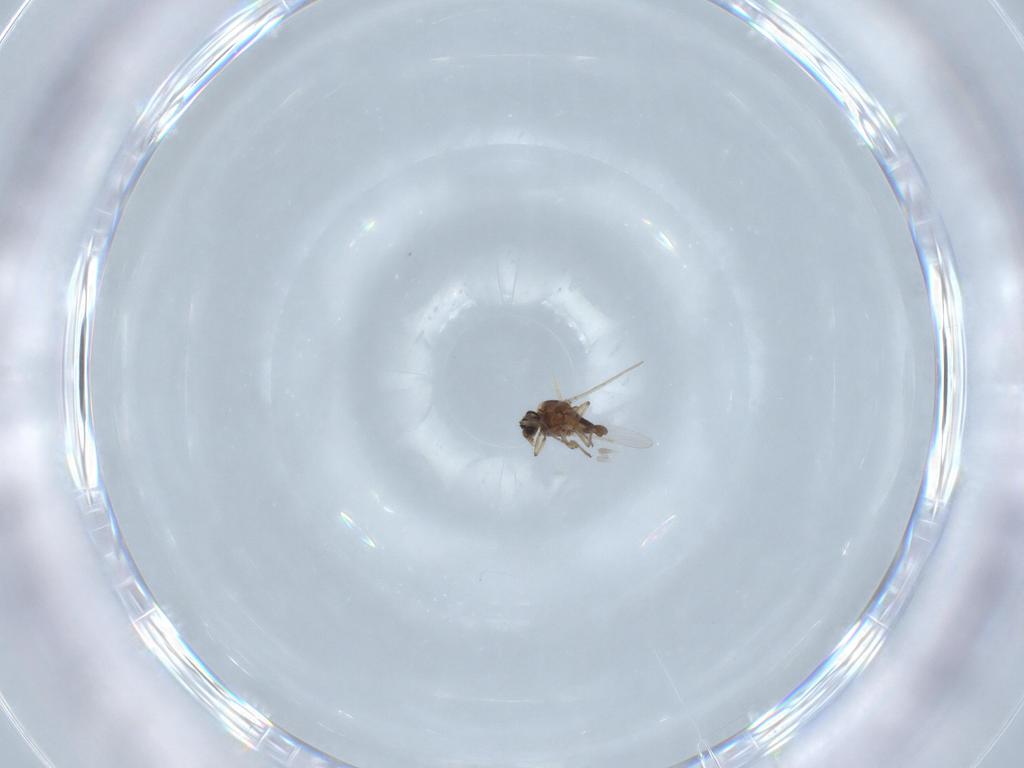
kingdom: Animalia
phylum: Arthropoda
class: Insecta
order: Diptera
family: Ceratopogonidae
